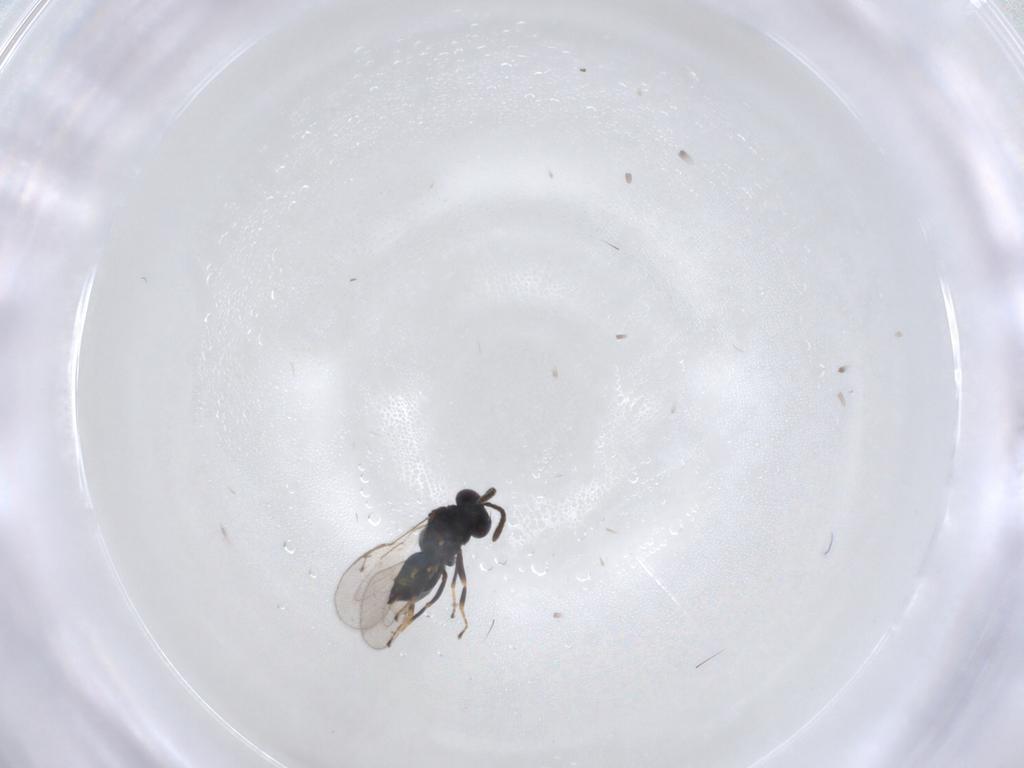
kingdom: Animalia
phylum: Arthropoda
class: Insecta
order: Hymenoptera
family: Pteromalidae
